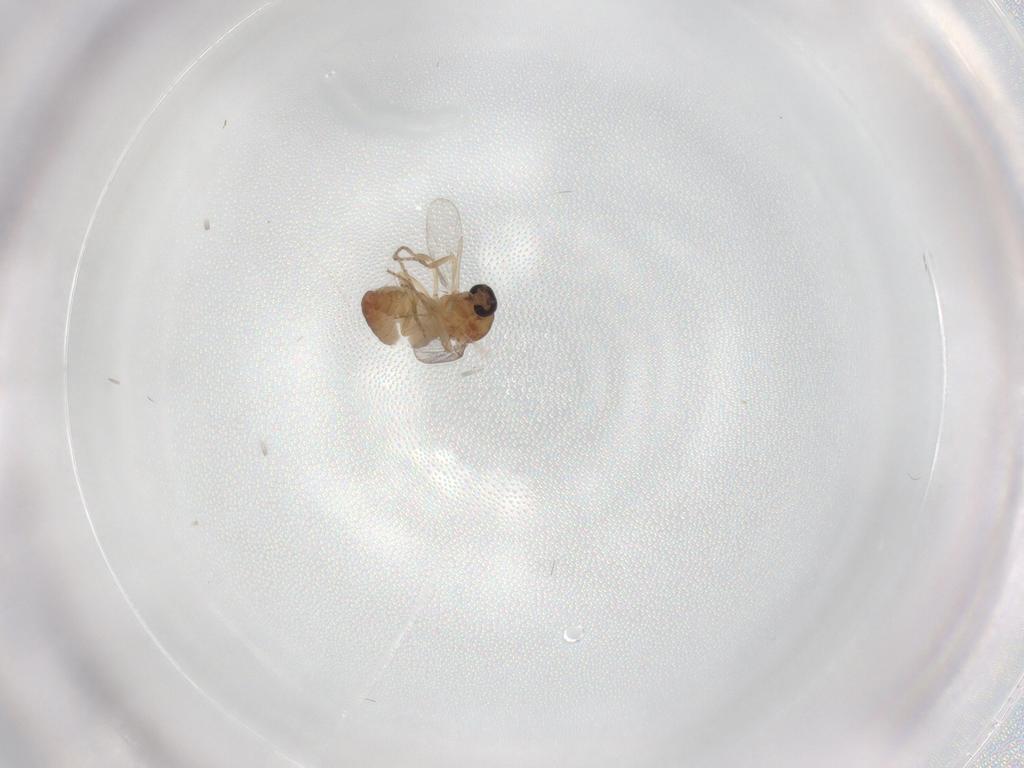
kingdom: Animalia
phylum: Arthropoda
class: Insecta
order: Diptera
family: Ceratopogonidae
